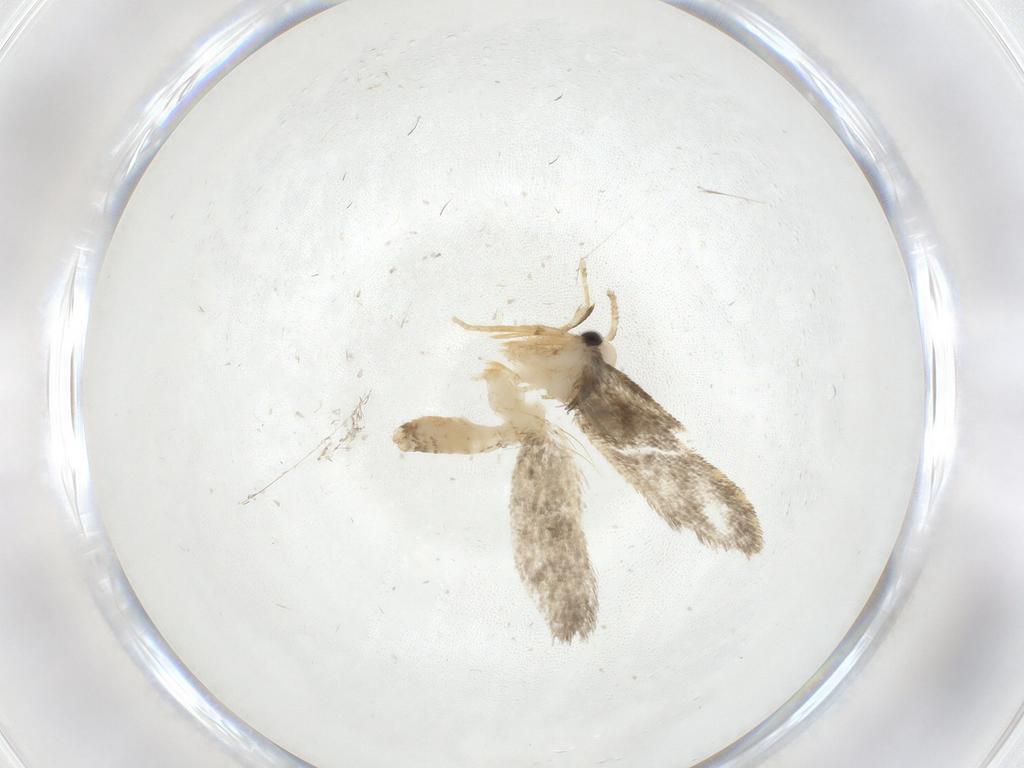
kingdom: Animalia
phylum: Arthropoda
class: Insecta
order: Lepidoptera
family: Psychidae
